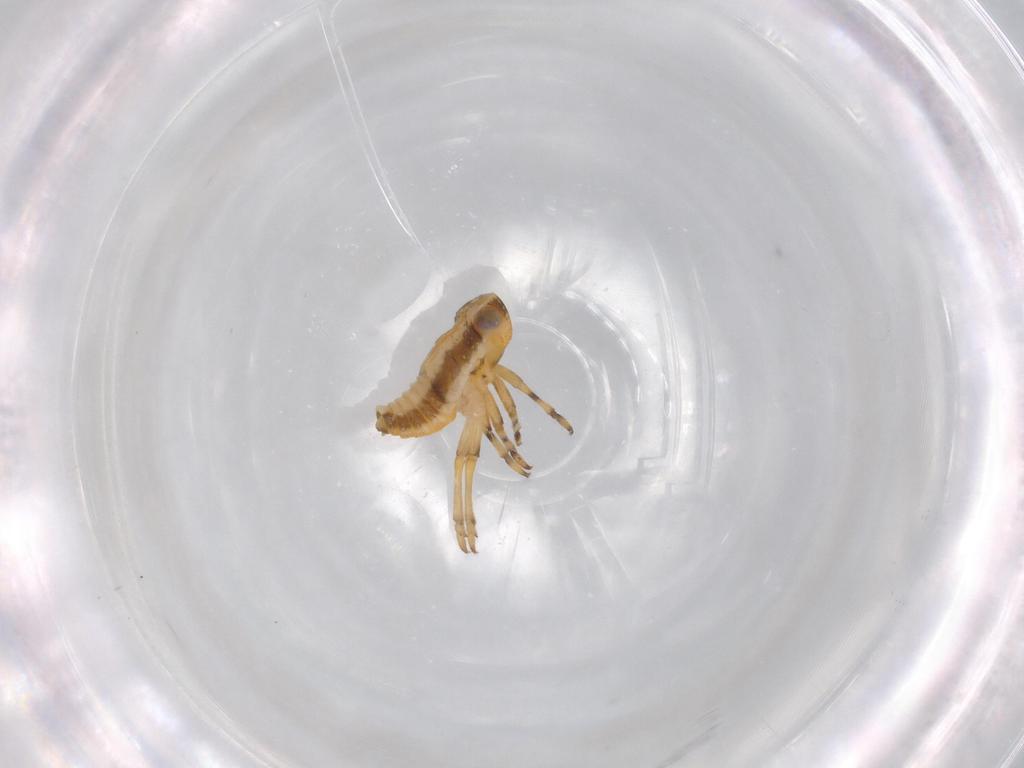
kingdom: Animalia
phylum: Arthropoda
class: Insecta
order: Hemiptera
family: Issidae
